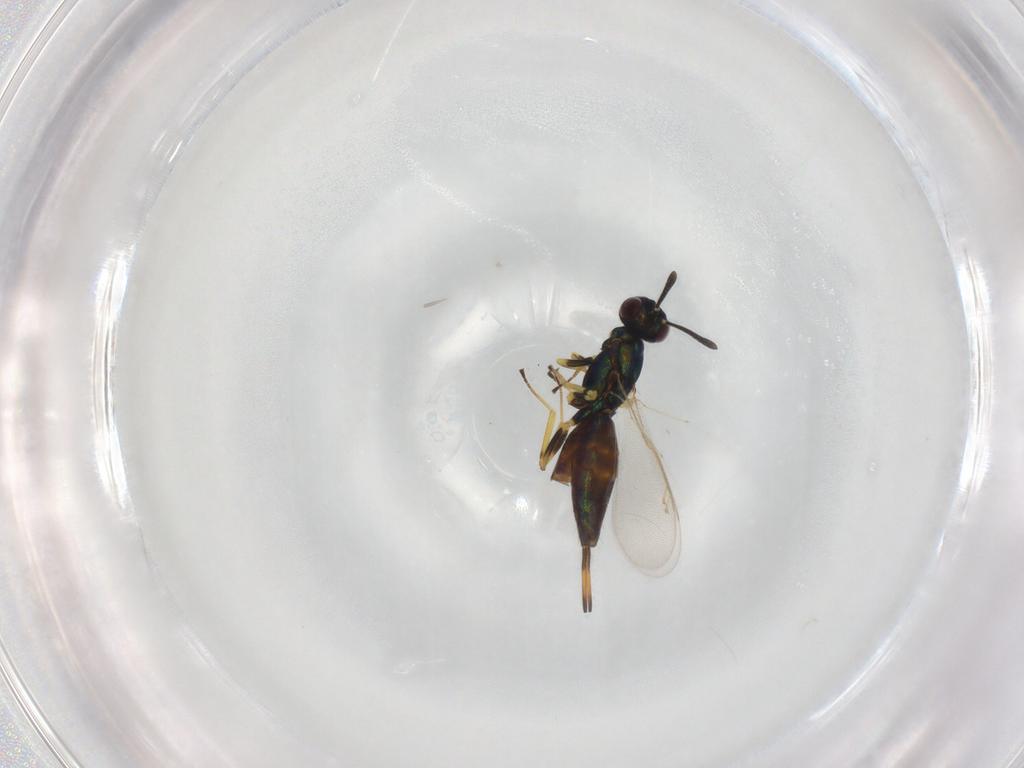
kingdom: Animalia
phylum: Arthropoda
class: Insecta
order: Hymenoptera
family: Eupelmidae
